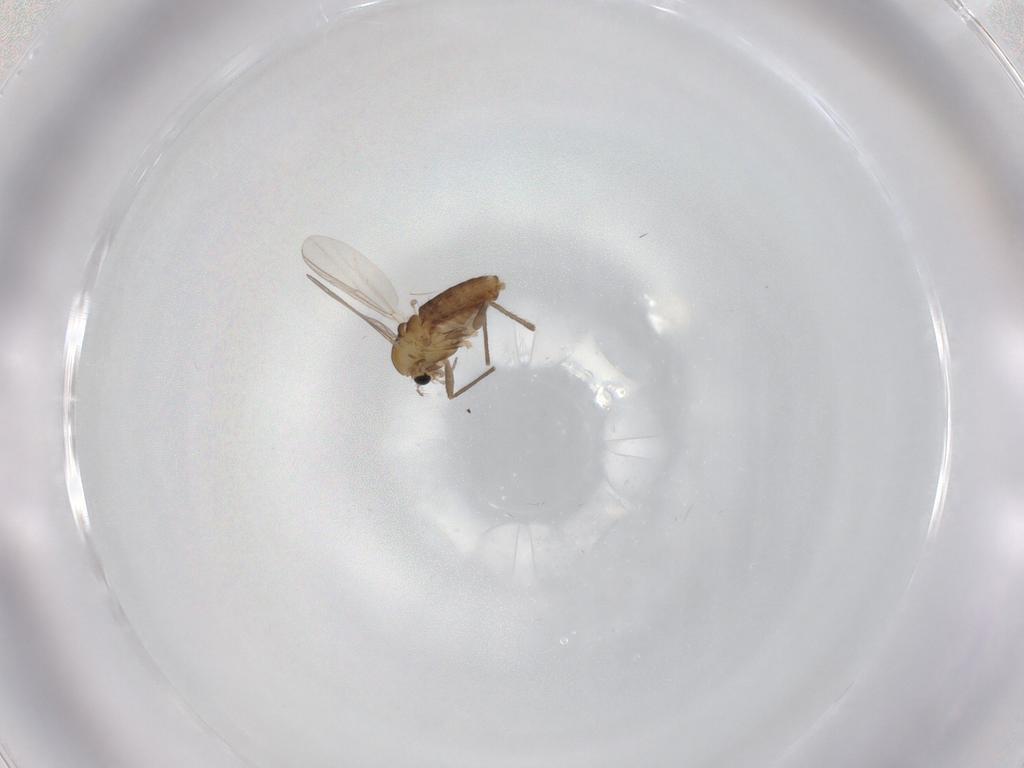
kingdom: Animalia
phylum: Arthropoda
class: Insecta
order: Diptera
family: Chironomidae
